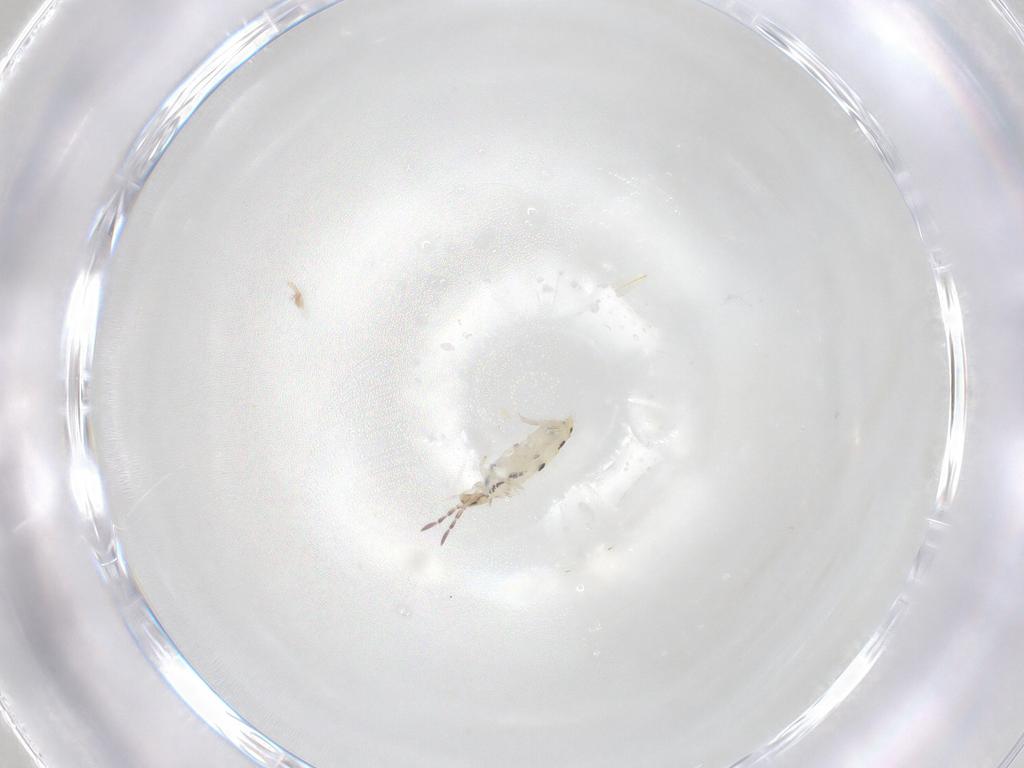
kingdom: Animalia
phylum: Arthropoda
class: Collembola
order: Entomobryomorpha
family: Entomobryidae
